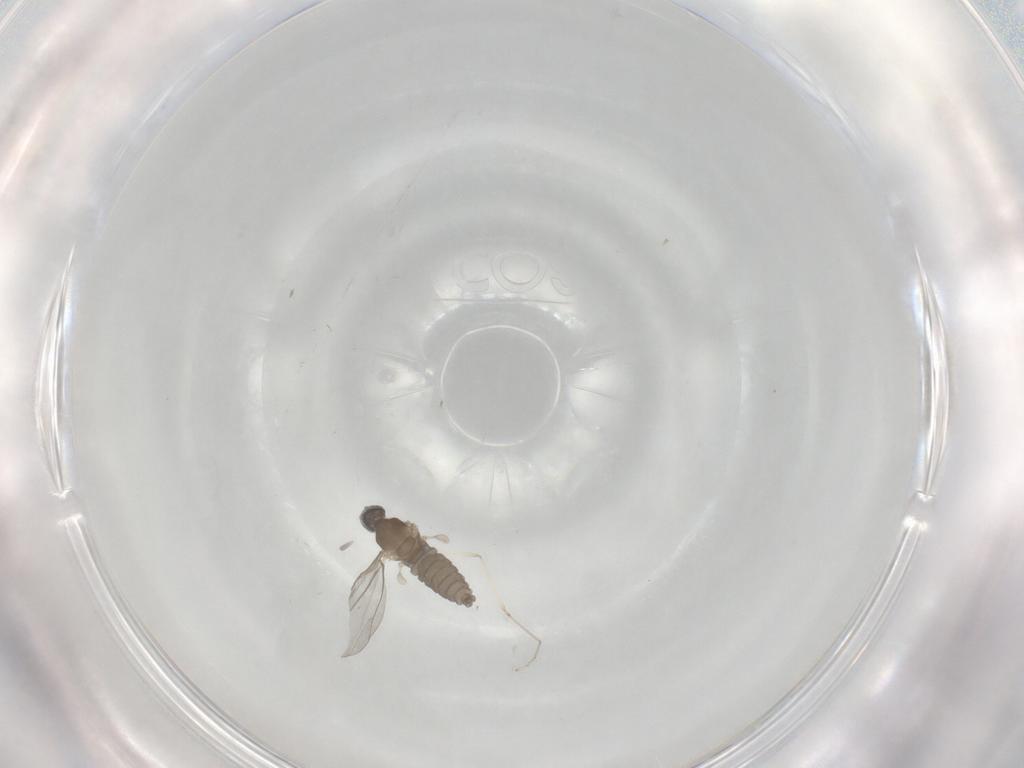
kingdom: Animalia
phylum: Arthropoda
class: Insecta
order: Diptera
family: Cecidomyiidae
